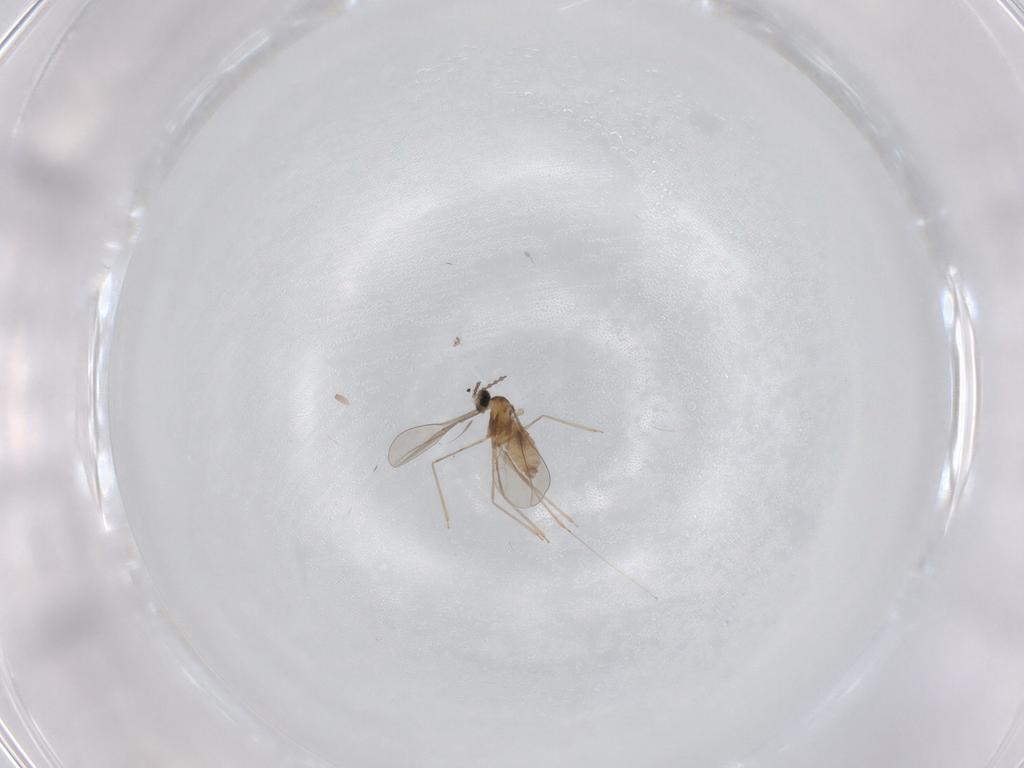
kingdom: Animalia
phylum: Arthropoda
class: Insecta
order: Diptera
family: Cecidomyiidae
